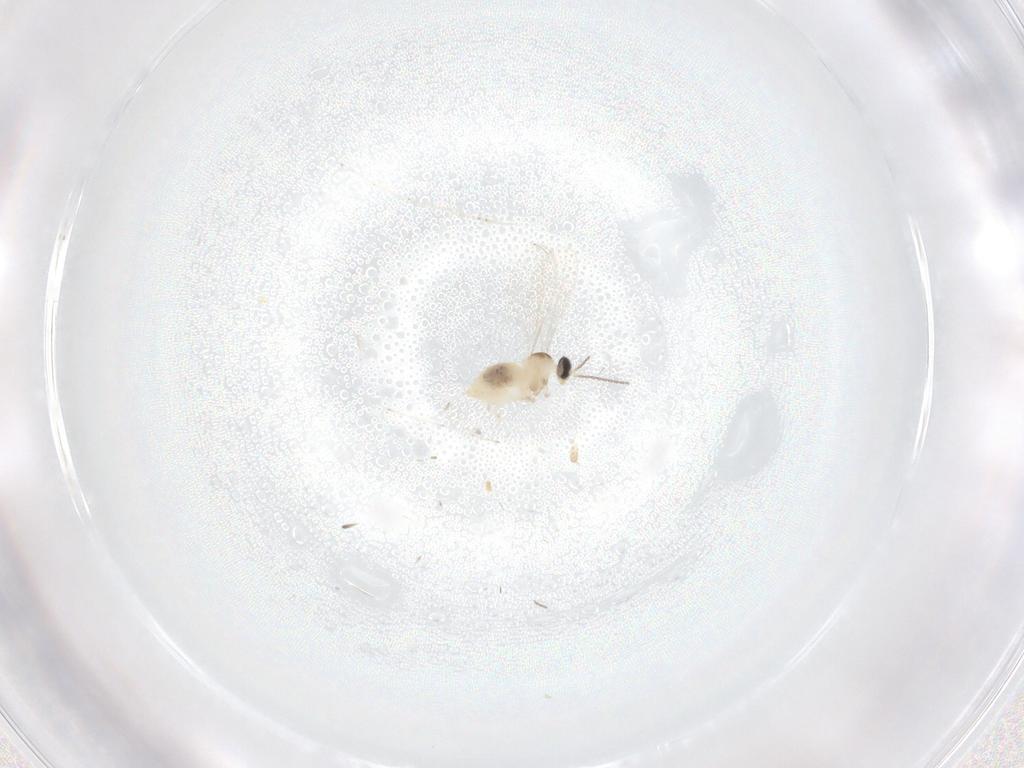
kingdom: Animalia
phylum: Arthropoda
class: Insecta
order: Diptera
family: Cecidomyiidae
